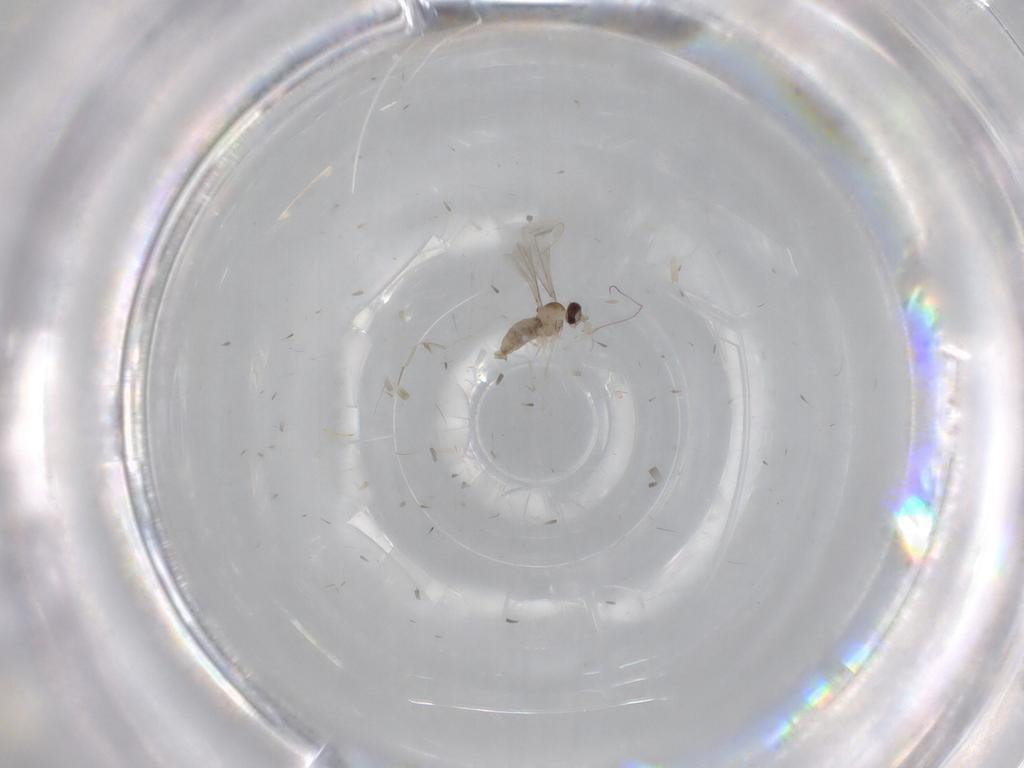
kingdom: Animalia
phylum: Arthropoda
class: Insecta
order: Diptera
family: Cecidomyiidae
